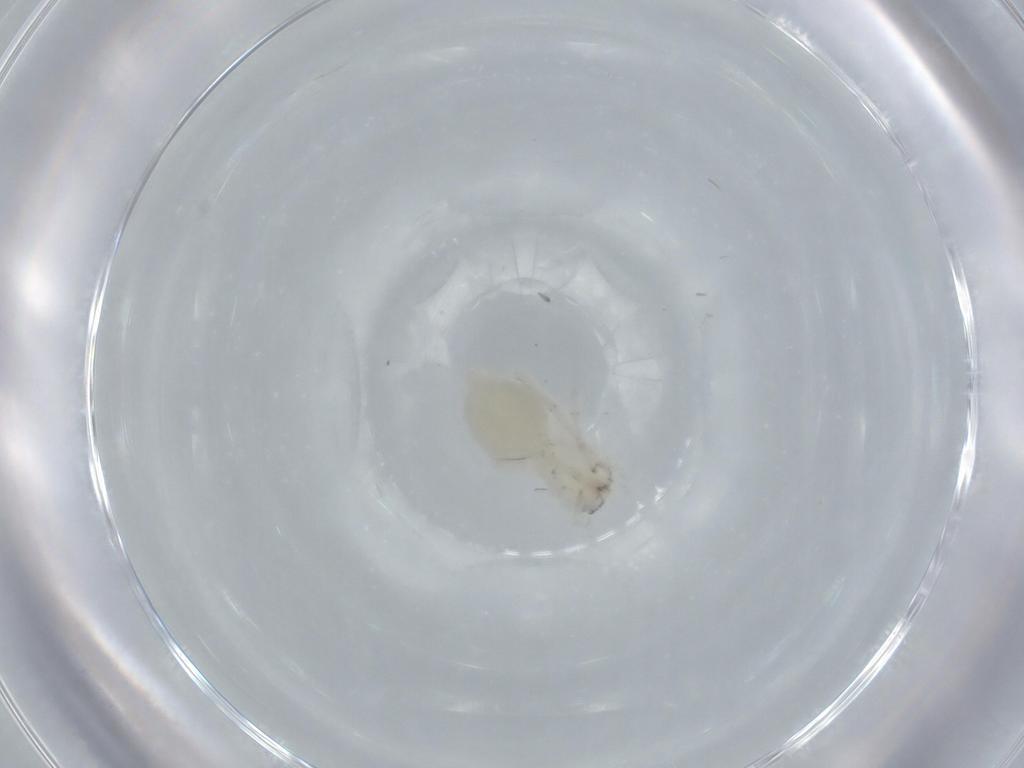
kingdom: Animalia
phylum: Arthropoda
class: Arachnida
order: Araneae
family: Anyphaenidae
